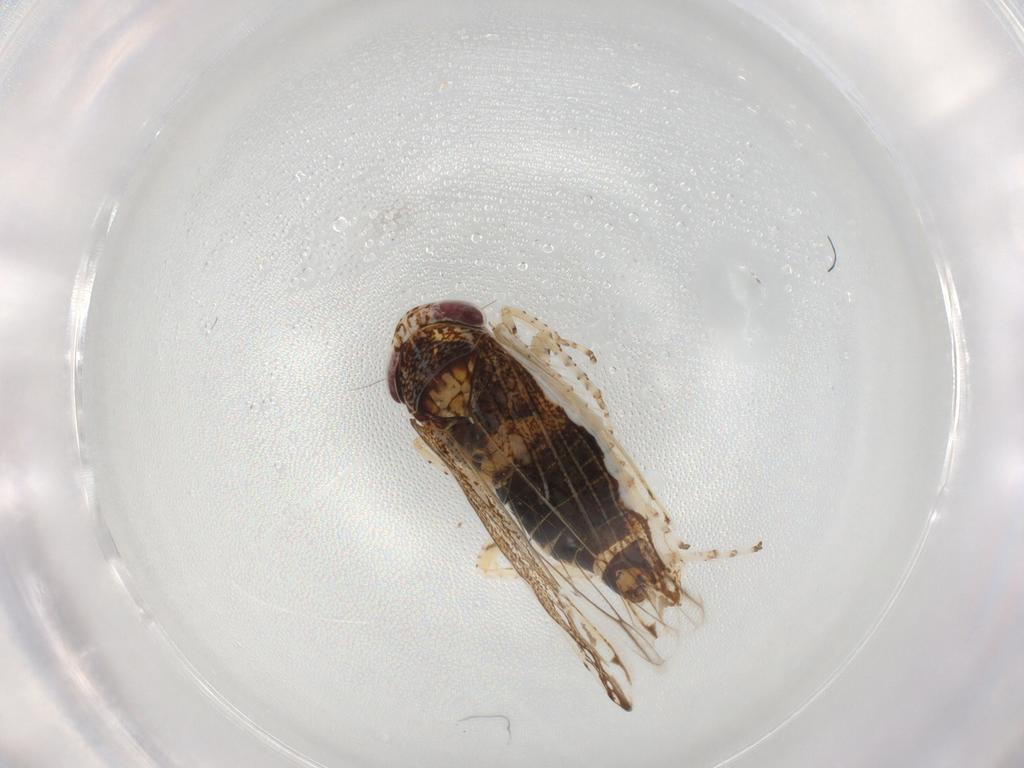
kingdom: Animalia
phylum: Arthropoda
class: Insecta
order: Hemiptera
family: Cicadellidae
